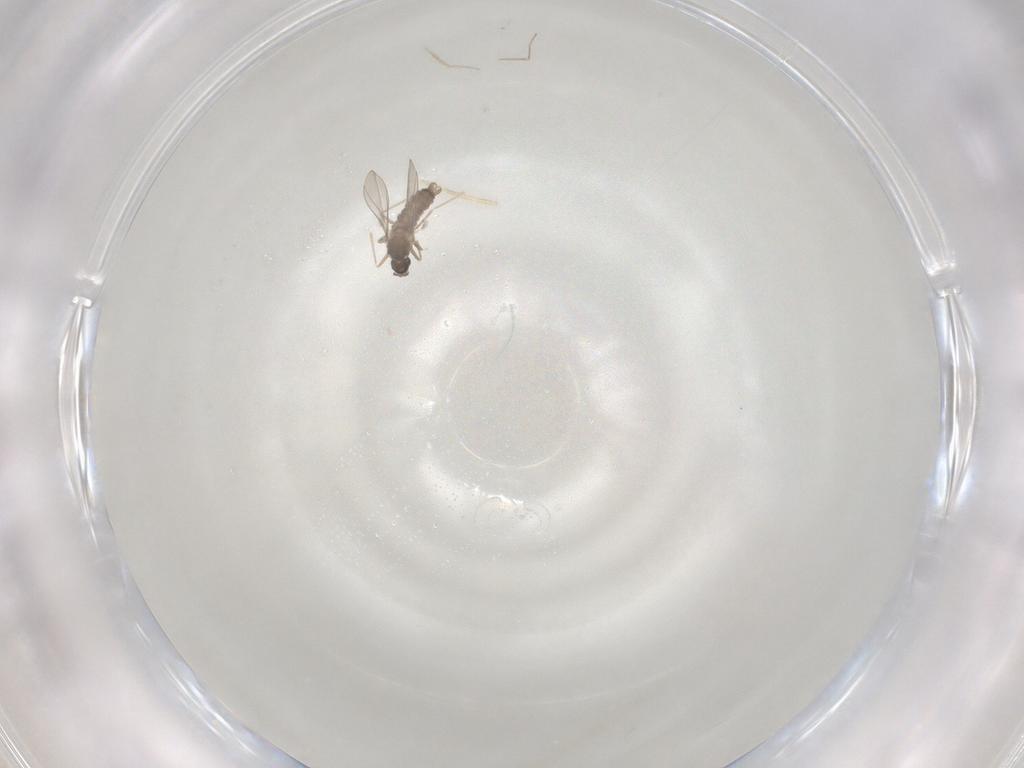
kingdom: Animalia
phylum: Arthropoda
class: Insecta
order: Diptera
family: Cecidomyiidae
